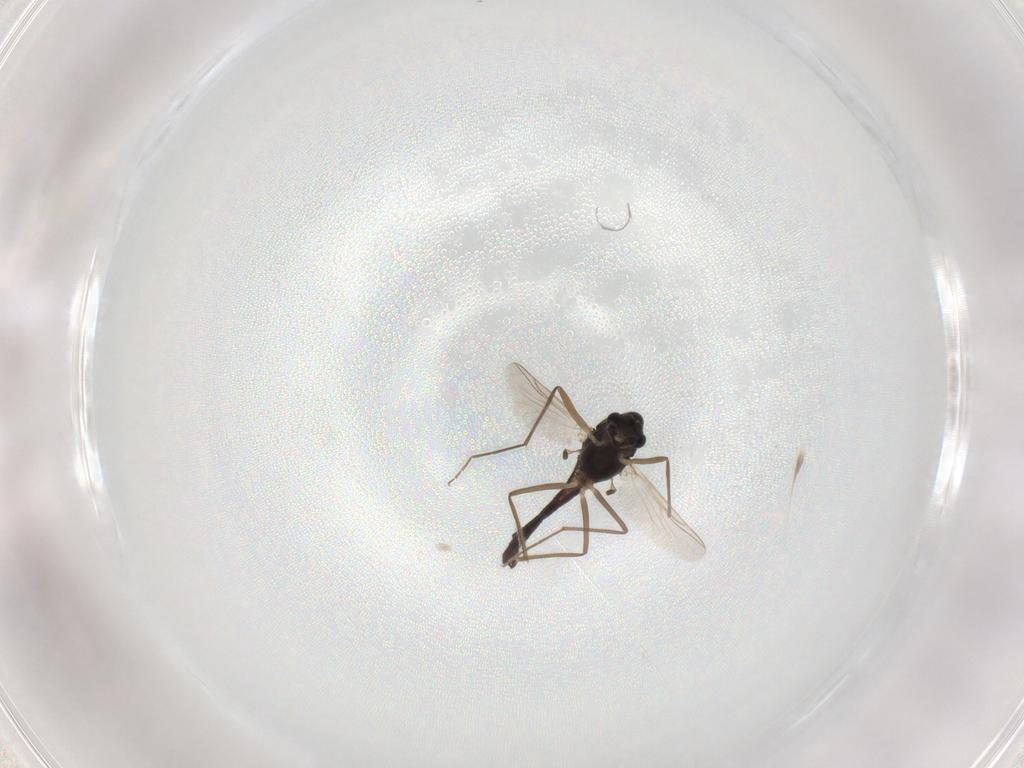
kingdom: Animalia
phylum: Arthropoda
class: Insecta
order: Diptera
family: Chironomidae
